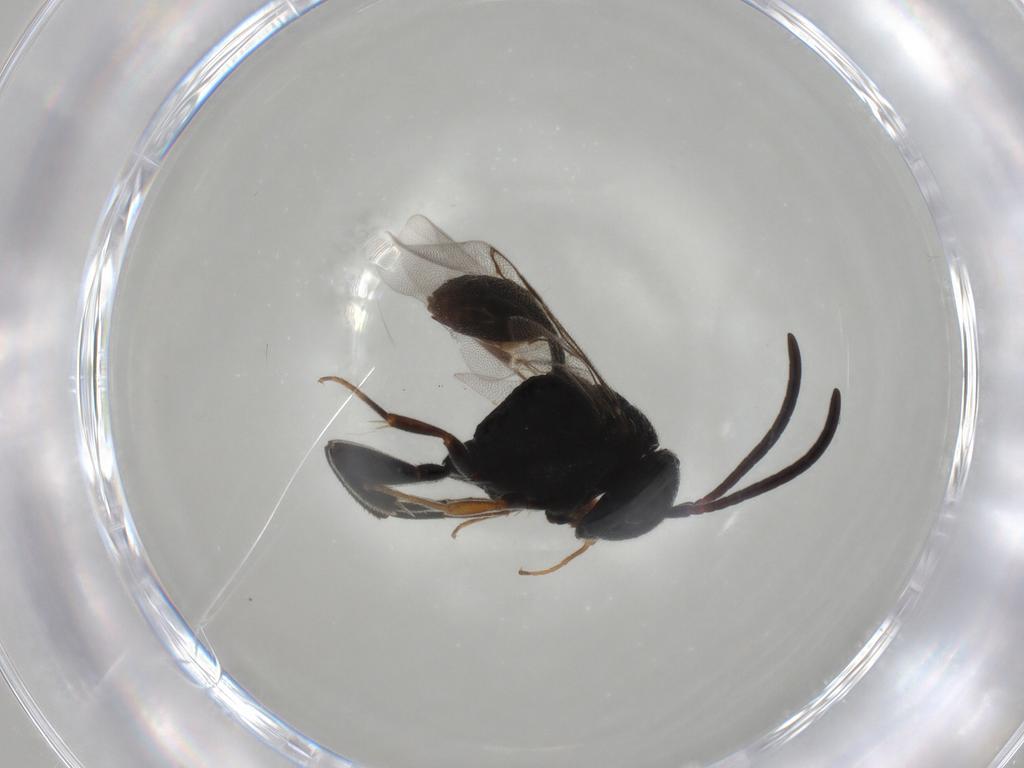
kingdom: Animalia
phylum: Arthropoda
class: Insecta
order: Hymenoptera
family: Evaniidae
